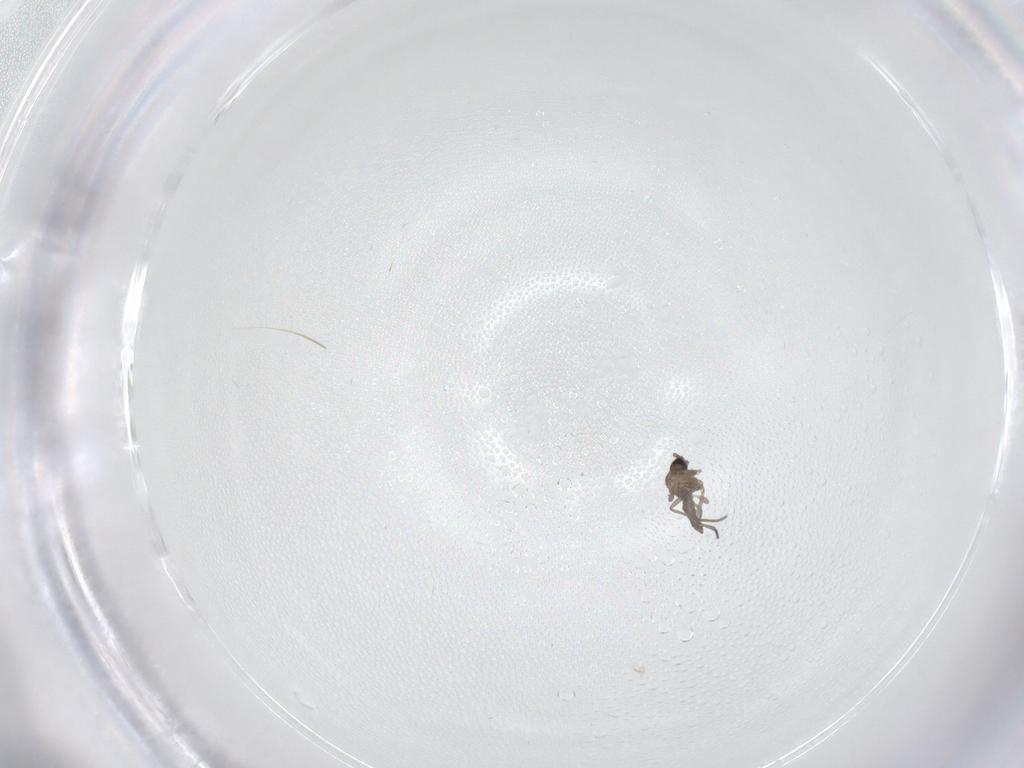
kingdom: Animalia
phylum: Arthropoda
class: Insecta
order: Diptera
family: Sciaridae
